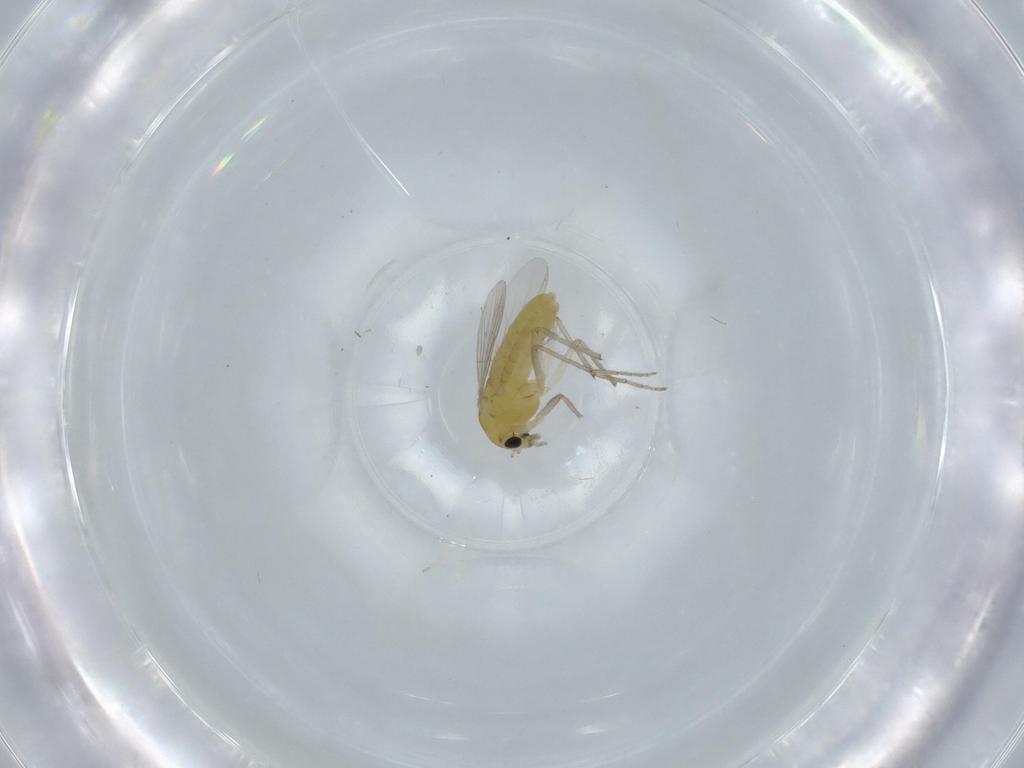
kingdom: Animalia
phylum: Arthropoda
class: Insecta
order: Diptera
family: Chironomidae
